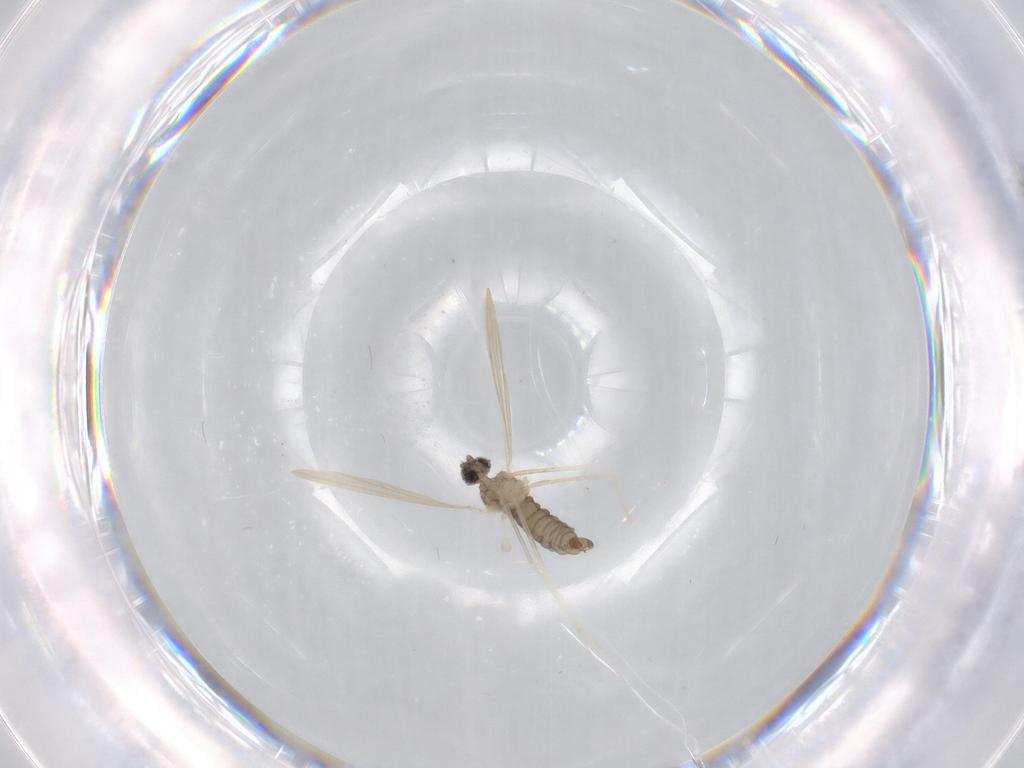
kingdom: Animalia
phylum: Arthropoda
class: Insecta
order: Diptera
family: Cecidomyiidae
